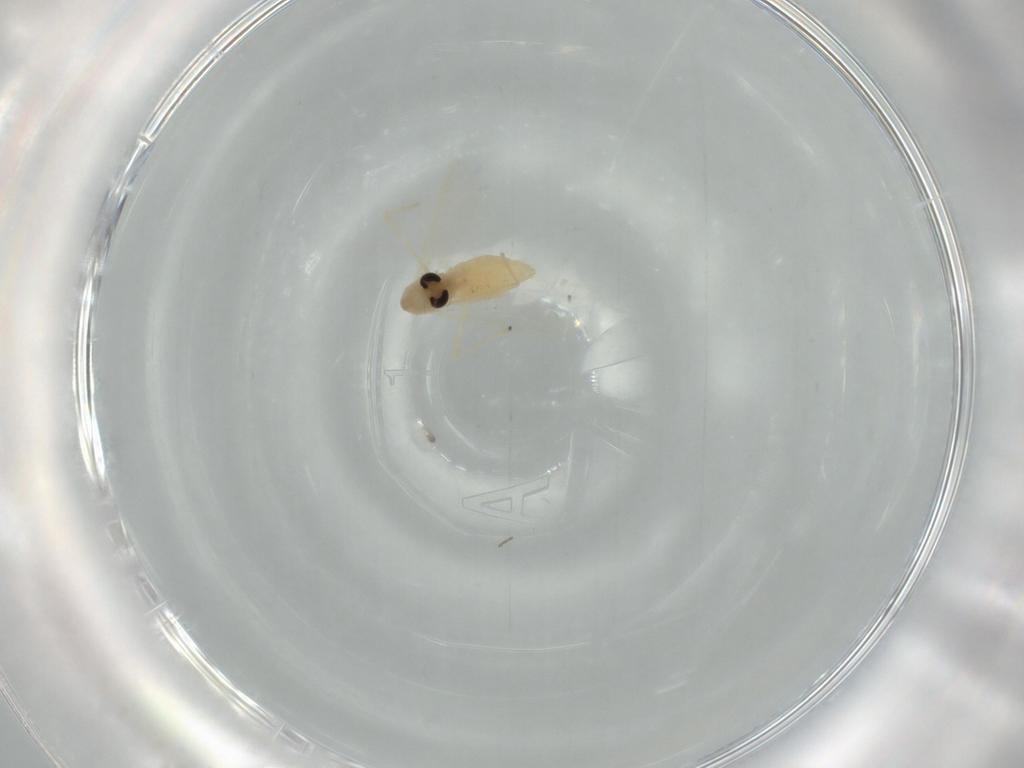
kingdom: Animalia
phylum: Arthropoda
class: Insecta
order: Diptera
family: Chironomidae
